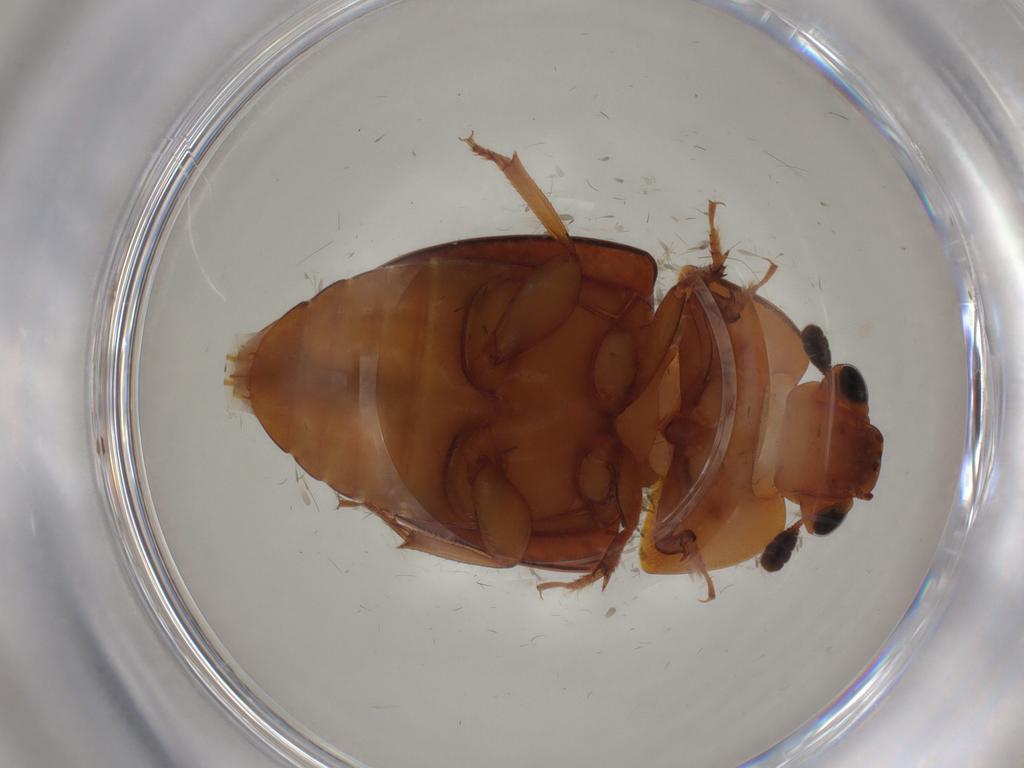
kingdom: Animalia
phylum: Arthropoda
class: Insecta
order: Coleoptera
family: Nitidulidae
